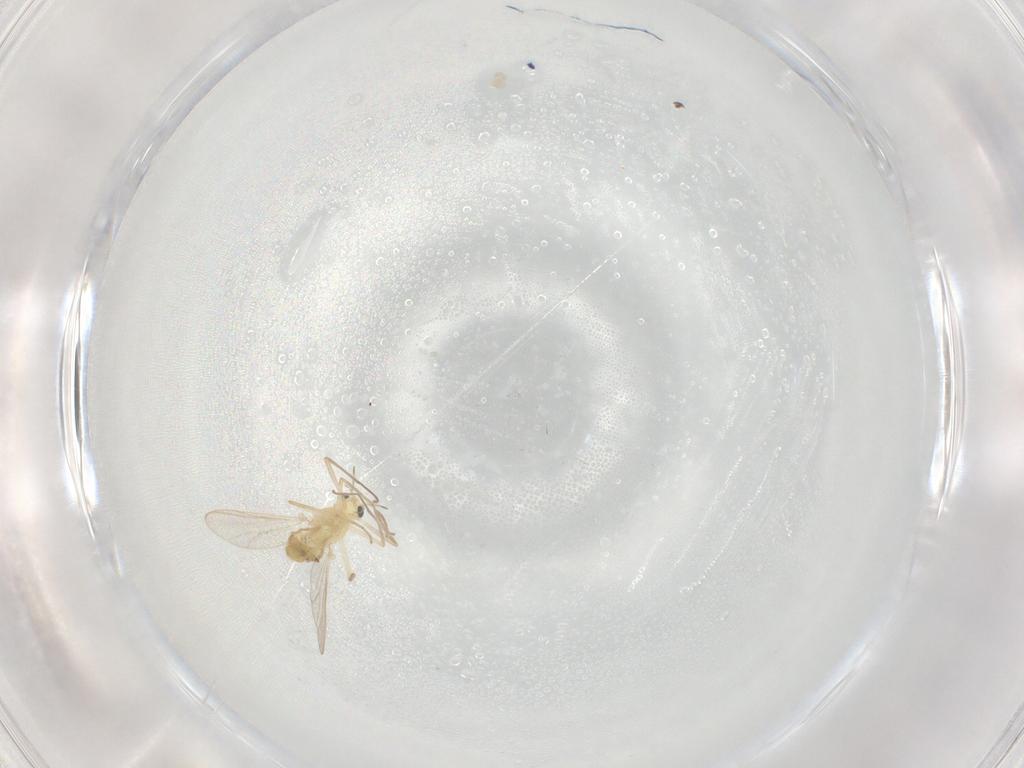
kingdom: Animalia
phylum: Arthropoda
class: Insecta
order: Diptera
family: Chironomidae
